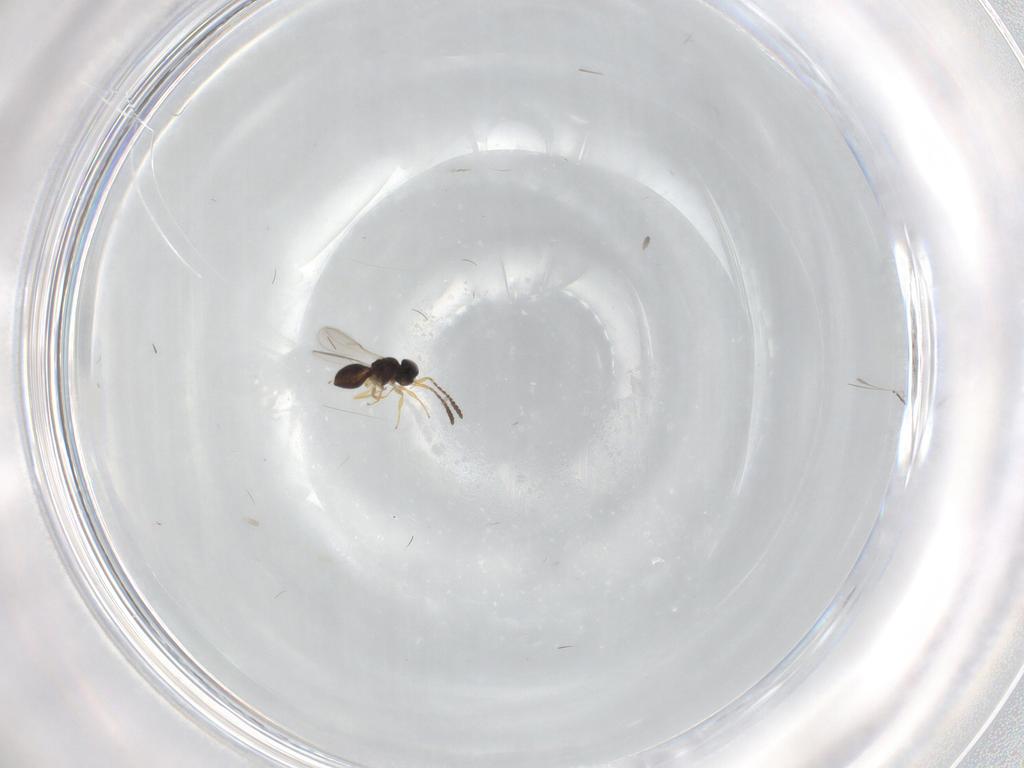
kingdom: Animalia
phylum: Arthropoda
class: Insecta
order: Hymenoptera
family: Scelionidae
